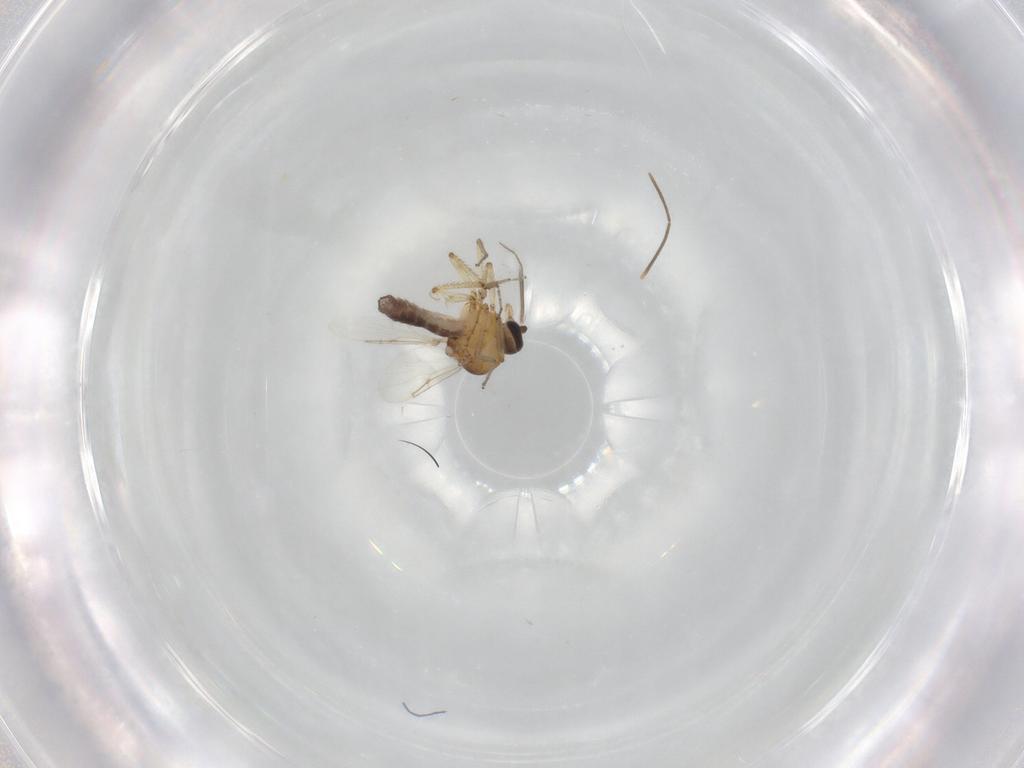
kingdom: Animalia
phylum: Arthropoda
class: Insecta
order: Diptera
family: Ceratopogonidae
